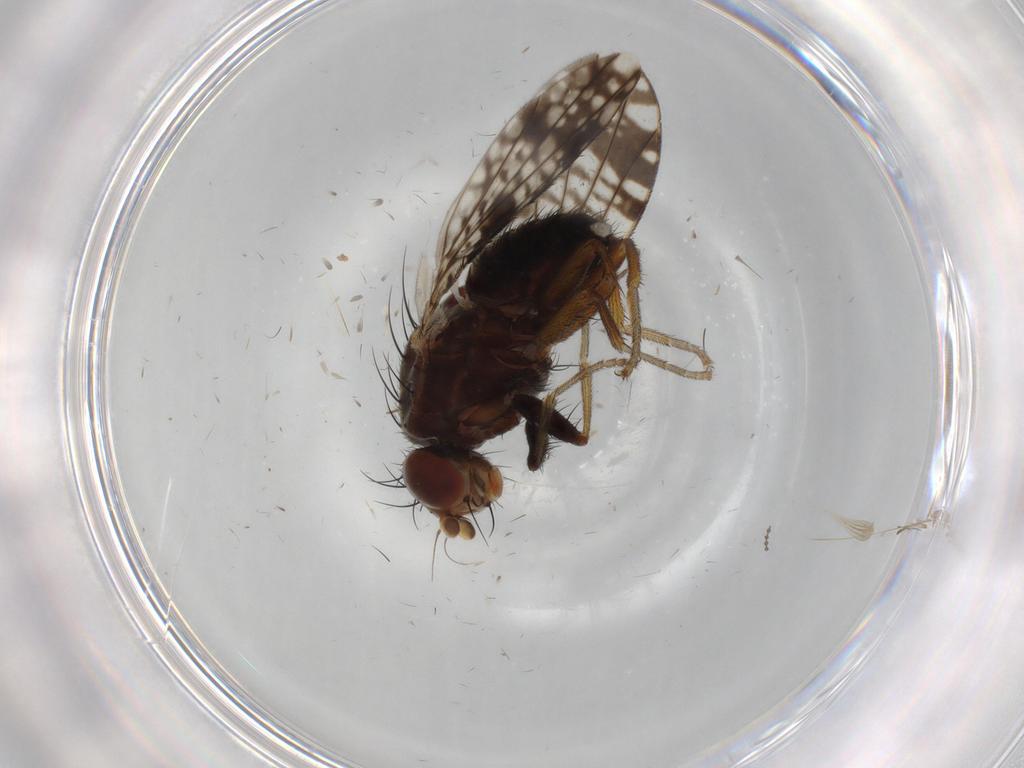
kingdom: Animalia
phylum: Arthropoda
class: Insecta
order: Diptera
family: Tephritidae
